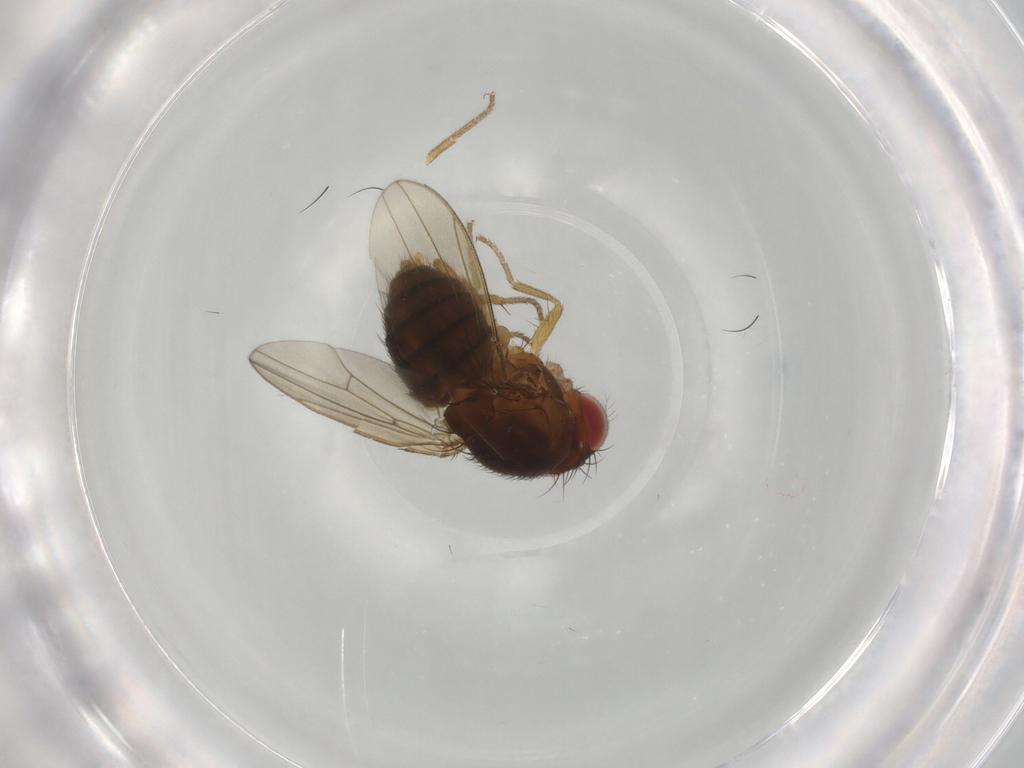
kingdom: Animalia
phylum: Arthropoda
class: Insecta
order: Diptera
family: Drosophilidae
